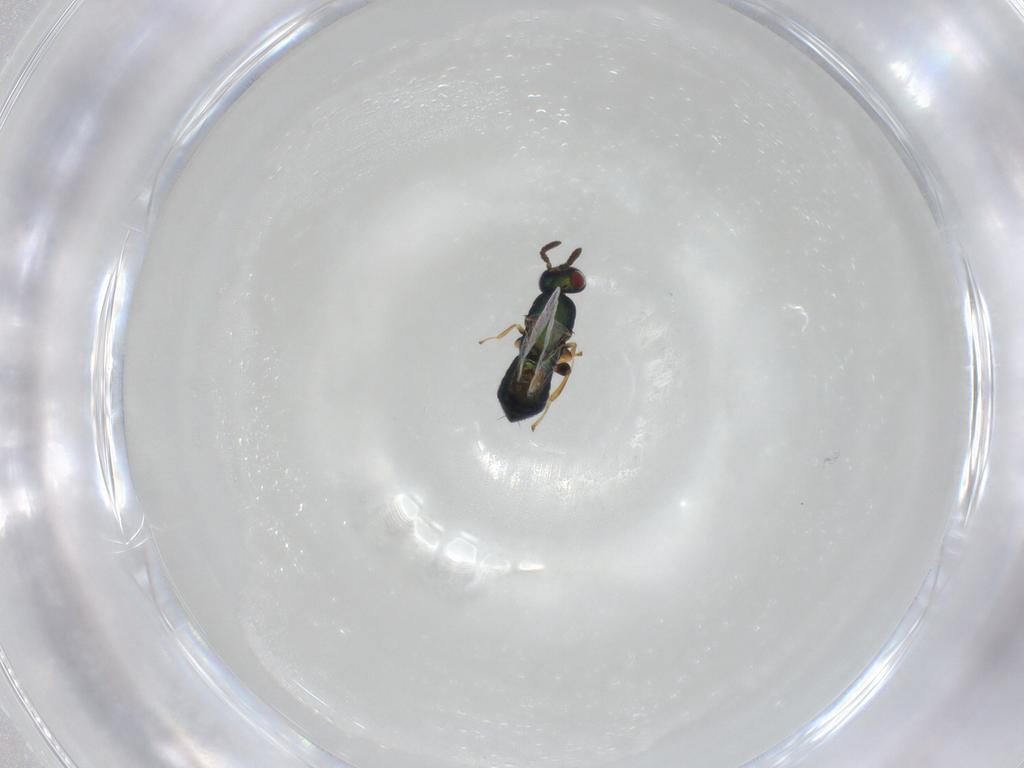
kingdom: Animalia
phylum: Arthropoda
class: Insecta
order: Hymenoptera
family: Pteromalidae
